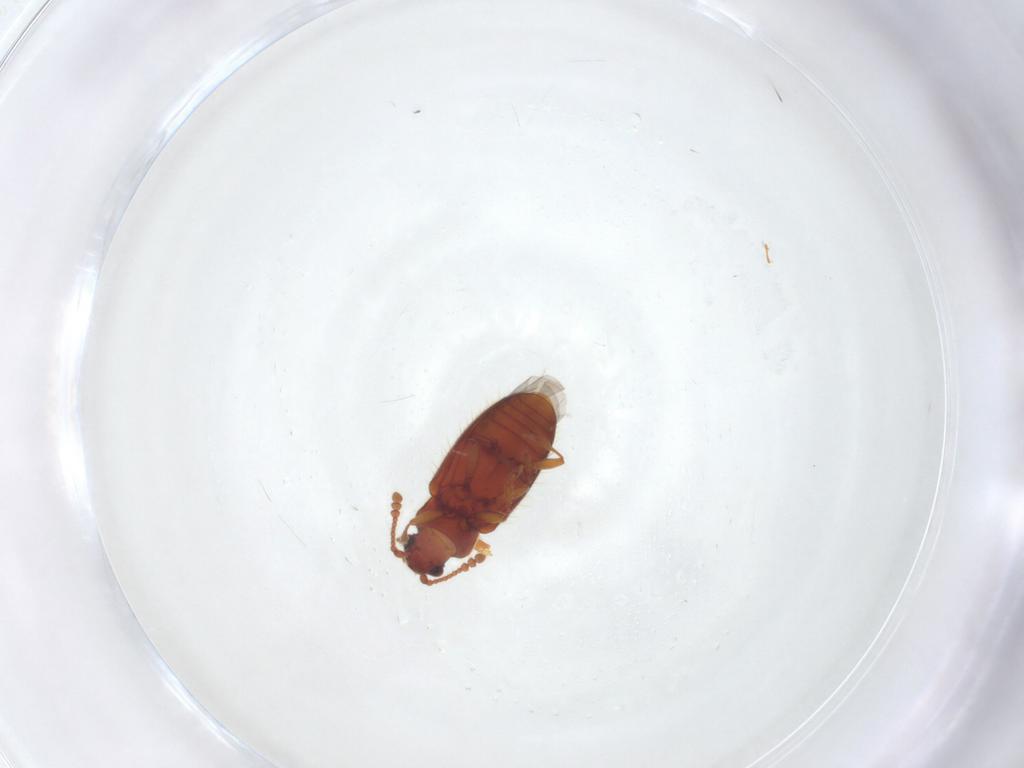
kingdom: Animalia
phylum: Arthropoda
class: Insecta
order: Coleoptera
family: Cryptophagidae
